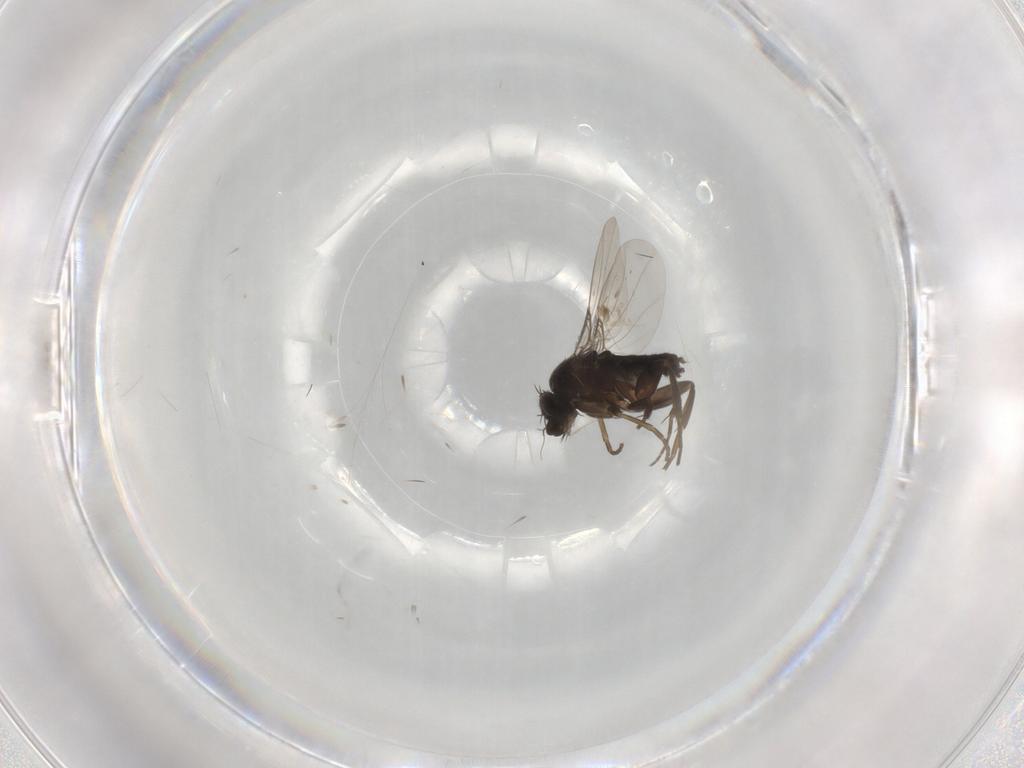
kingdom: Animalia
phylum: Arthropoda
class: Insecta
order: Diptera
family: Phoridae
